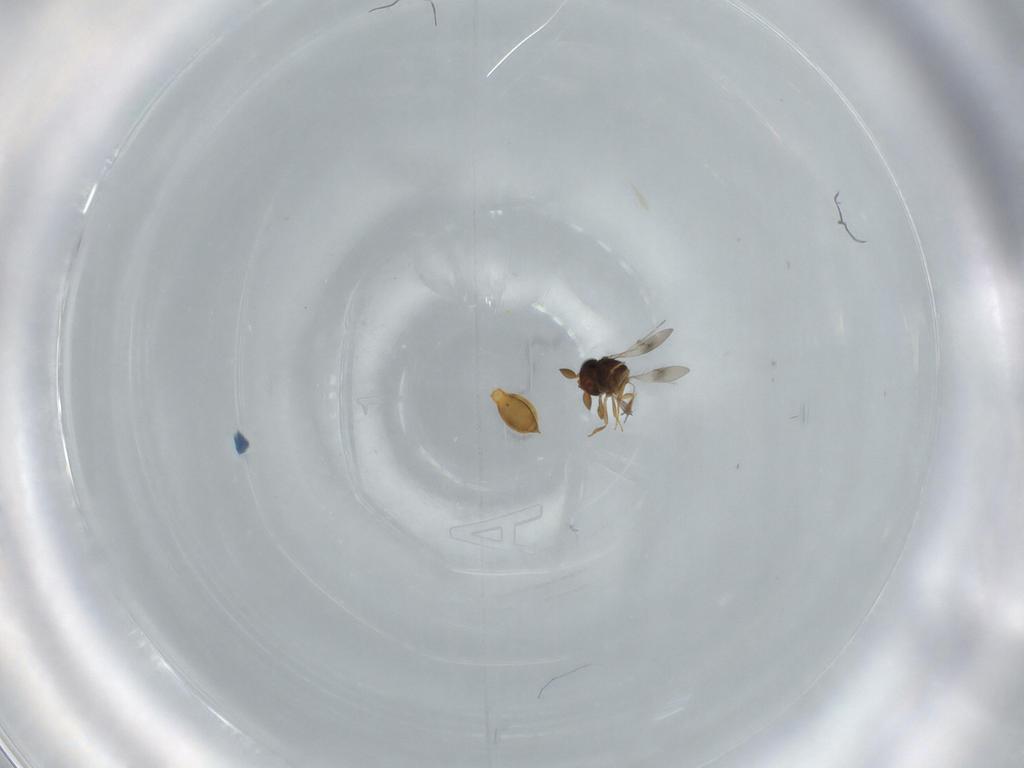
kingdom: Animalia
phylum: Arthropoda
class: Insecta
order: Hymenoptera
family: Scelionidae
